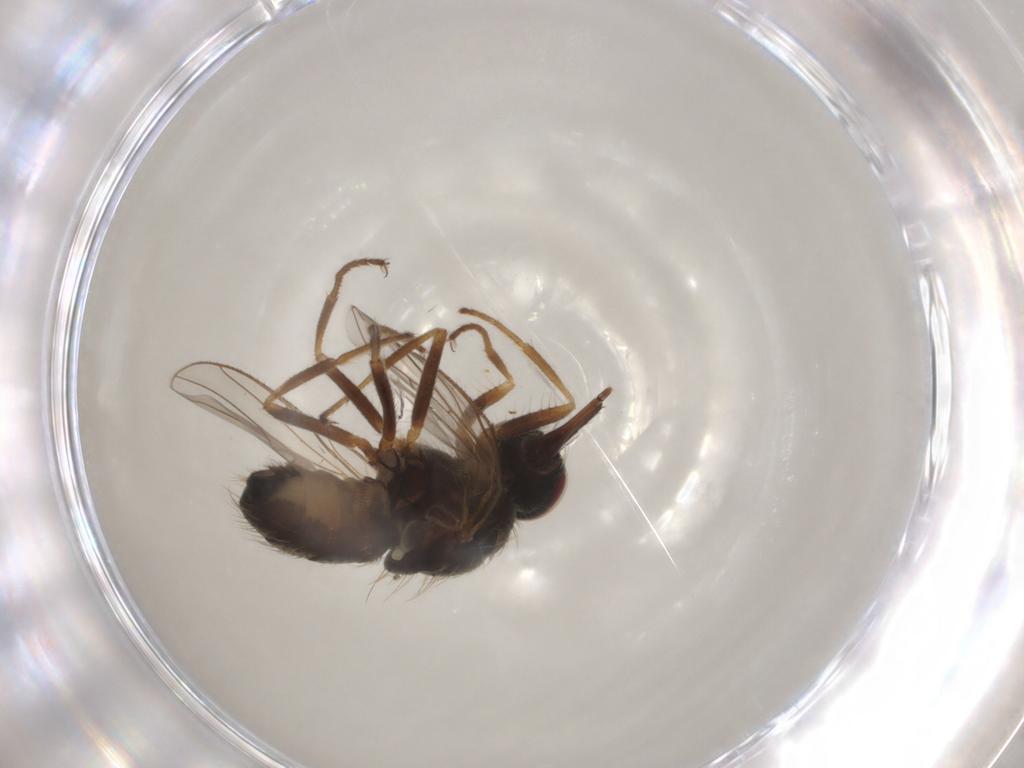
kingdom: Animalia
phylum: Arthropoda
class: Insecta
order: Diptera
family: Muscidae
